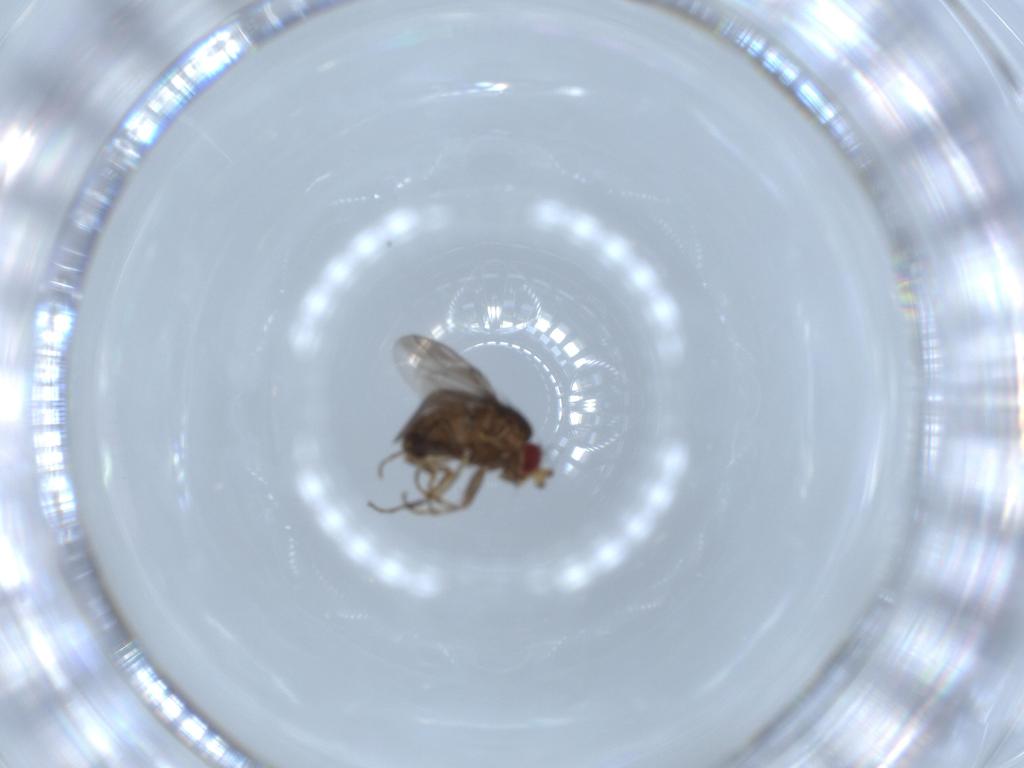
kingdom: Animalia
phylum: Arthropoda
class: Insecta
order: Diptera
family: Cecidomyiidae
